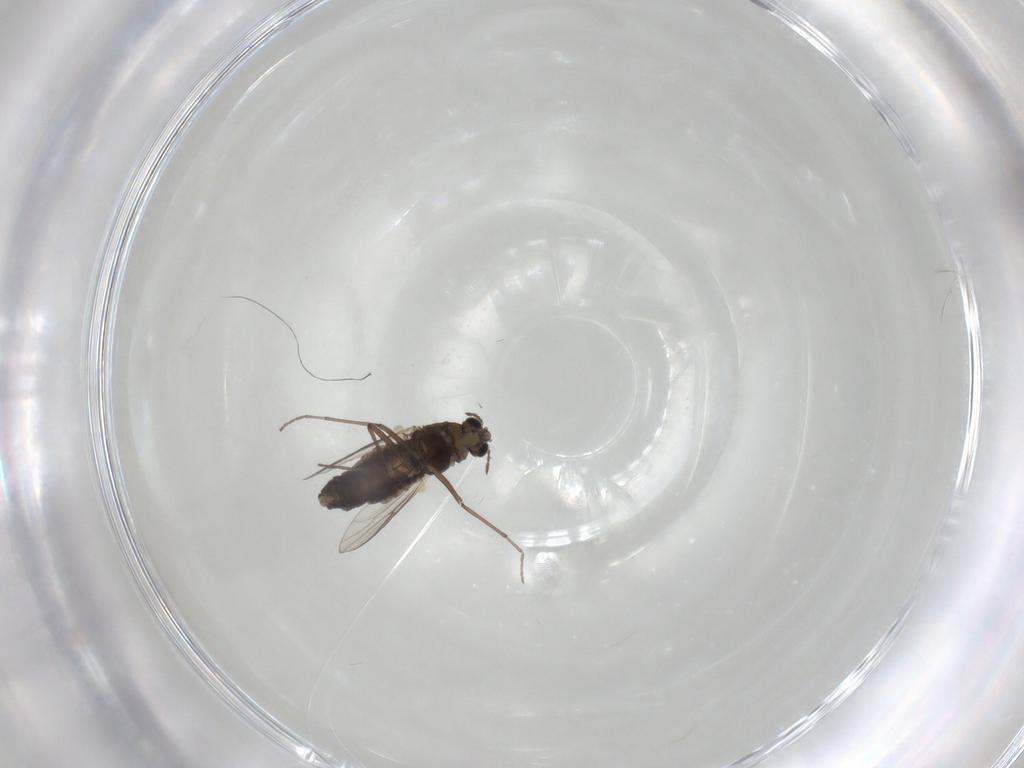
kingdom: Animalia
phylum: Arthropoda
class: Insecta
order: Diptera
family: Chironomidae
